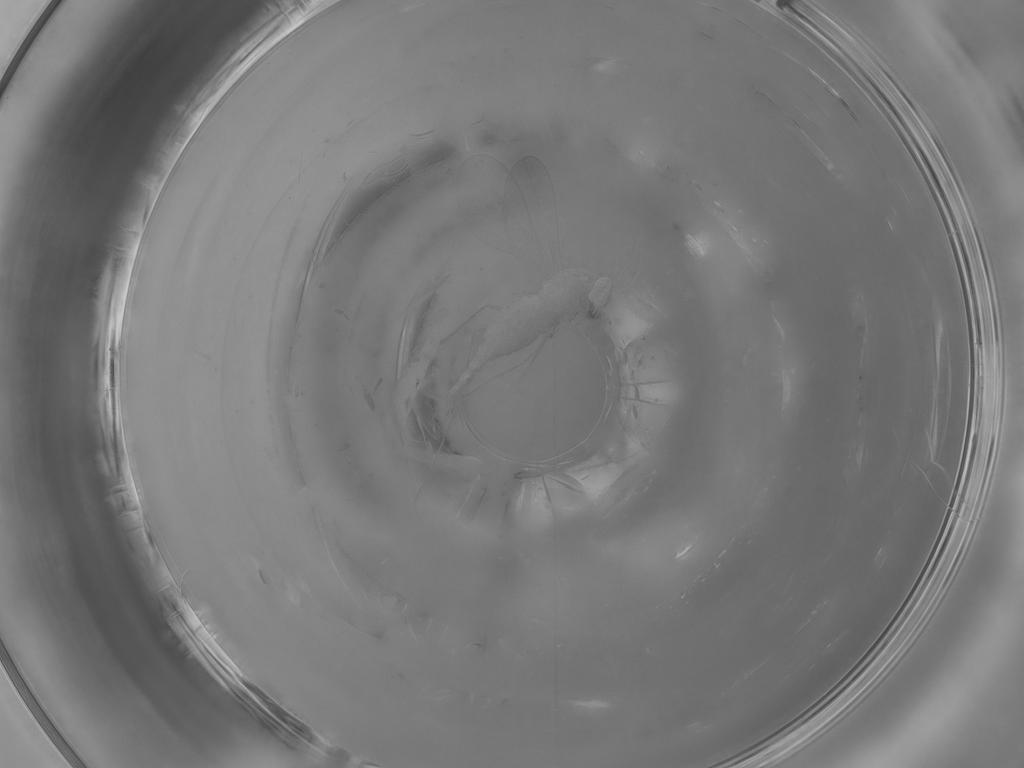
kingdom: Animalia
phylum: Arthropoda
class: Insecta
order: Diptera
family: Cecidomyiidae
